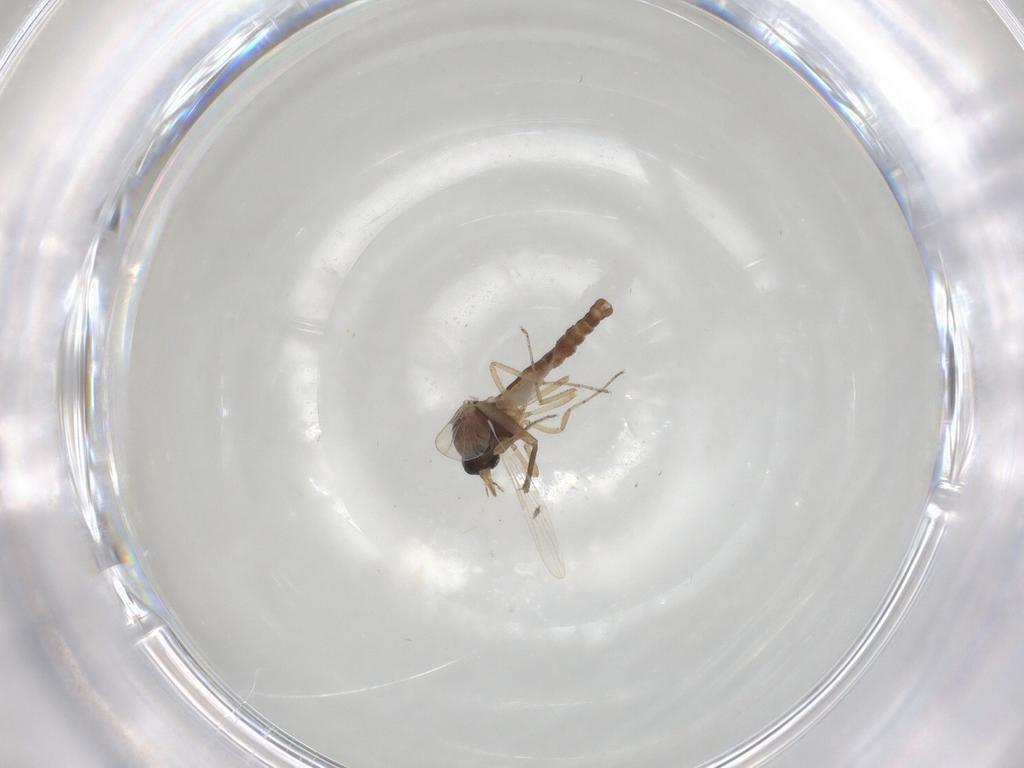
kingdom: Animalia
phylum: Arthropoda
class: Insecta
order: Diptera
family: Ceratopogonidae
